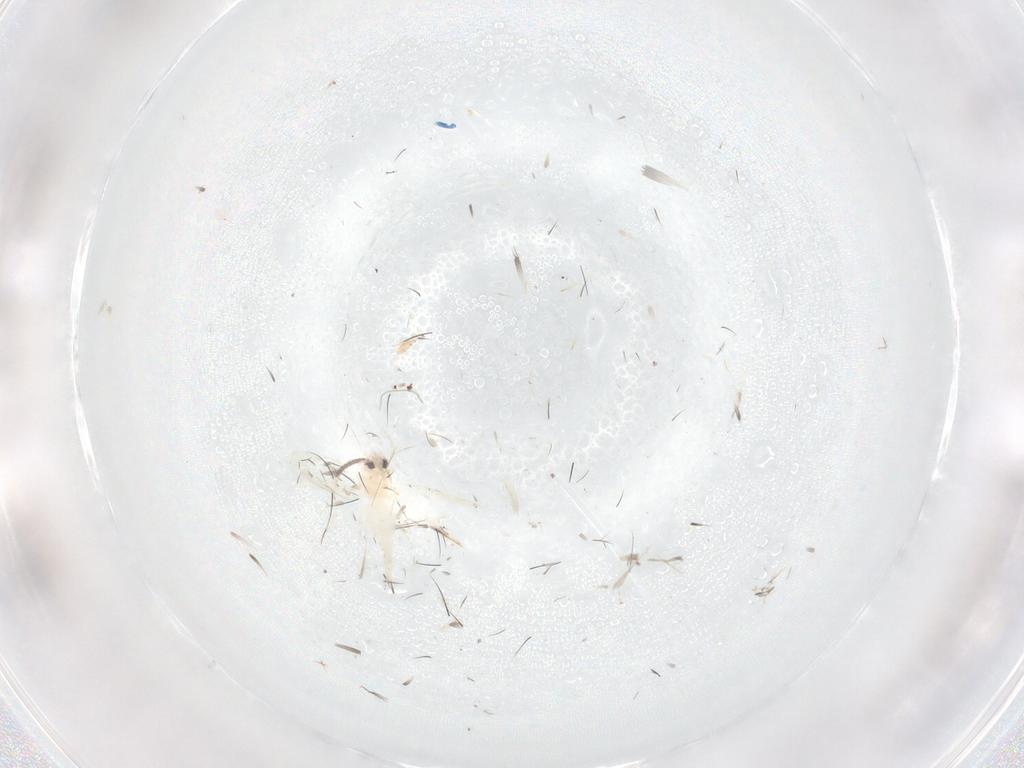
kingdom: Animalia
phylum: Arthropoda
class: Insecta
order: Hemiptera
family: Aleyrodidae
